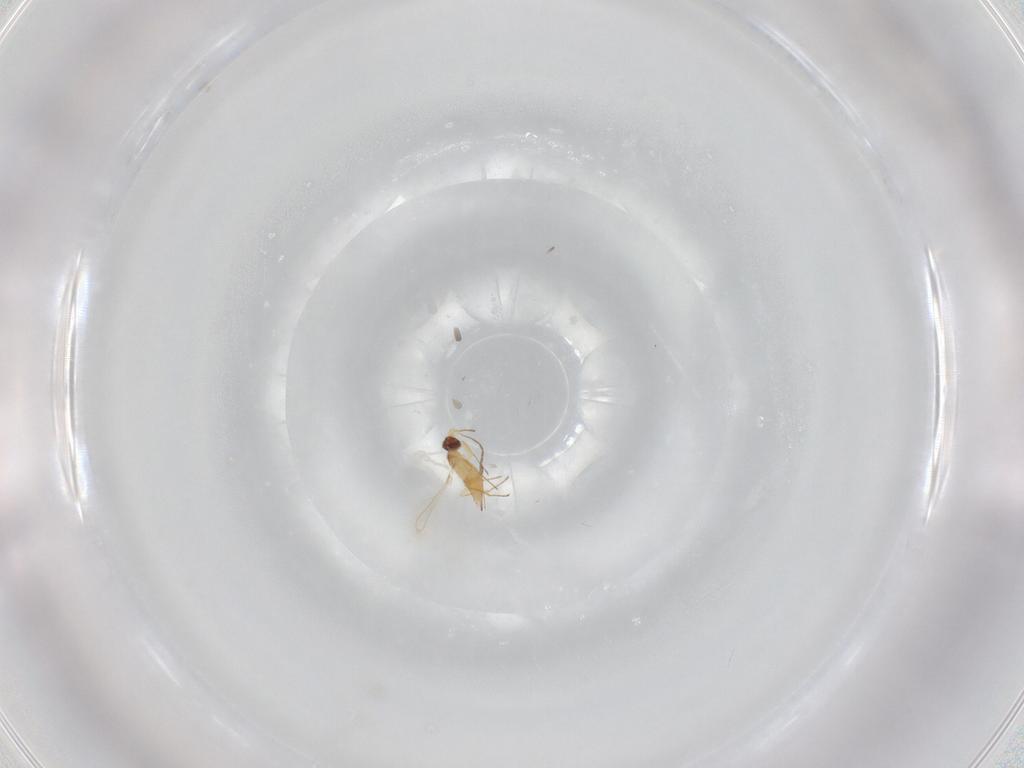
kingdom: Animalia
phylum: Arthropoda
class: Insecta
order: Hymenoptera
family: Mymaridae
